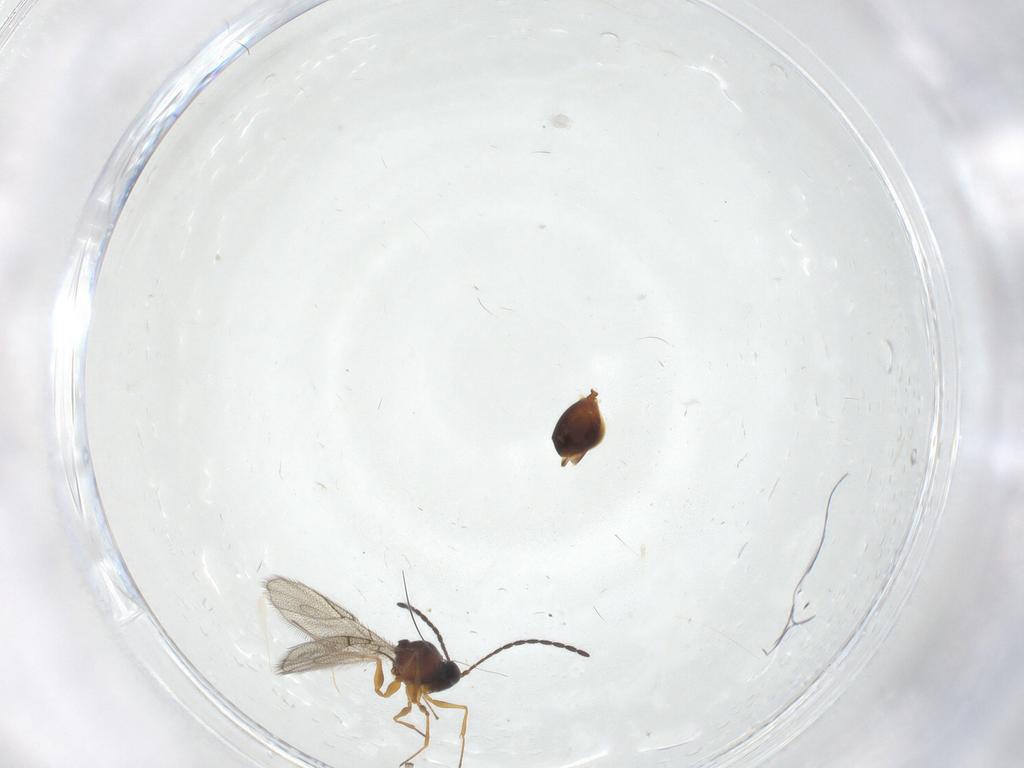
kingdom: Animalia
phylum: Arthropoda
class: Insecta
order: Hymenoptera
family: Figitidae
